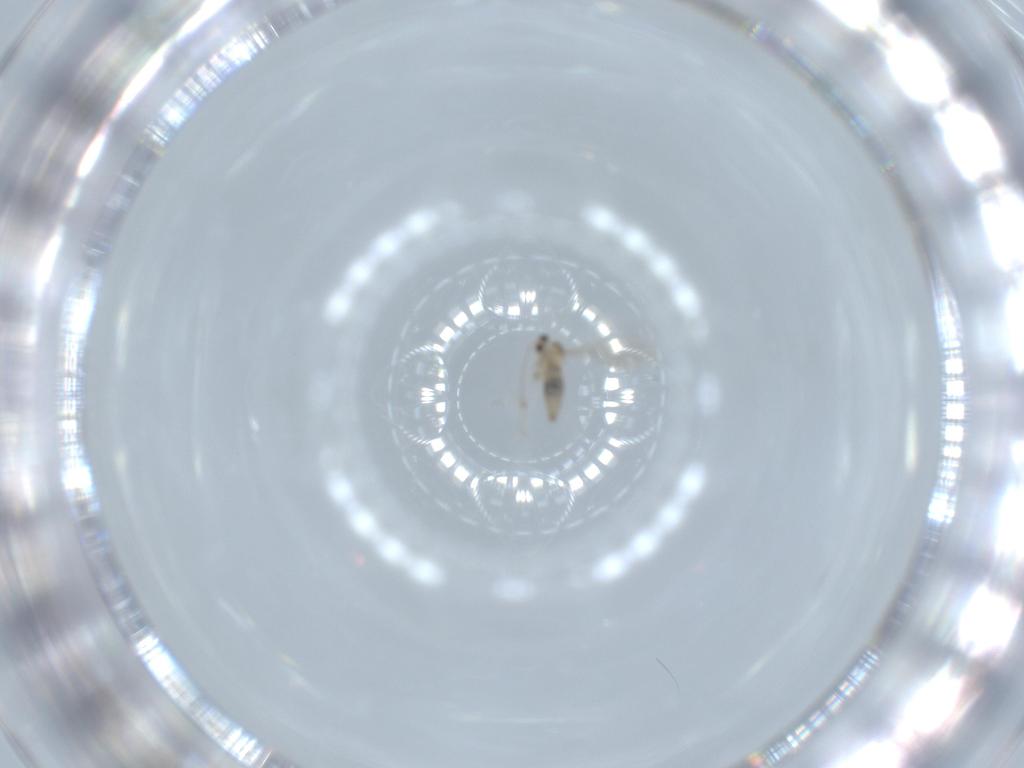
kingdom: Animalia
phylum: Arthropoda
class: Insecta
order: Diptera
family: Cecidomyiidae
